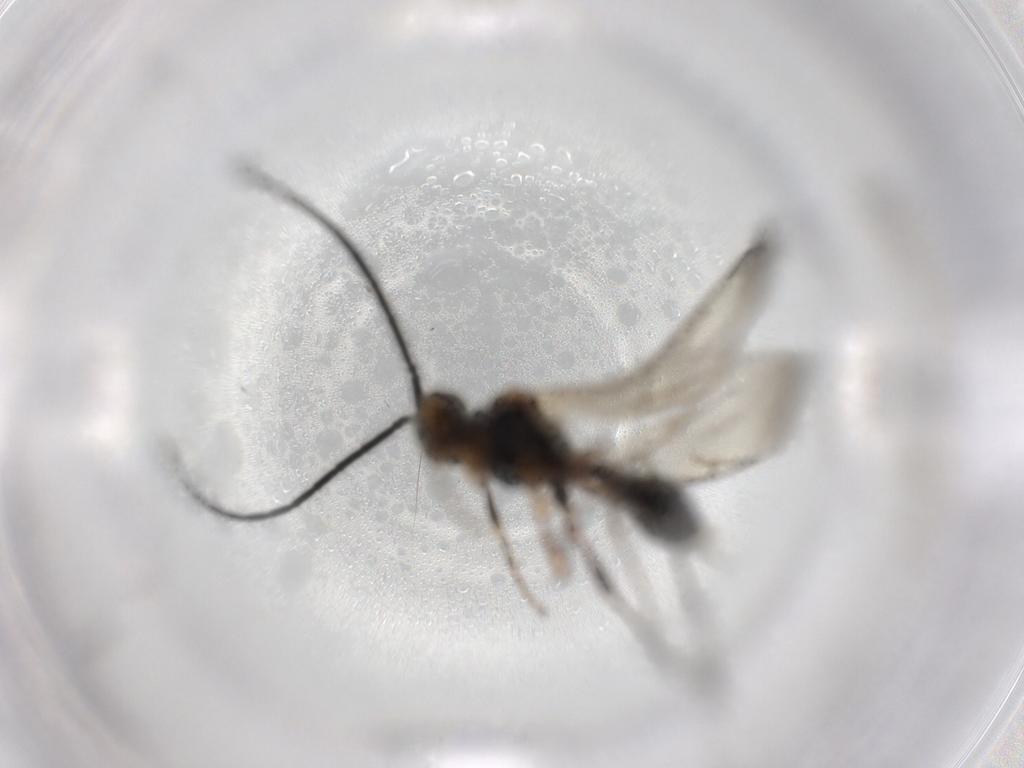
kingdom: Animalia
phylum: Arthropoda
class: Insecta
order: Hymenoptera
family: Diapriidae
